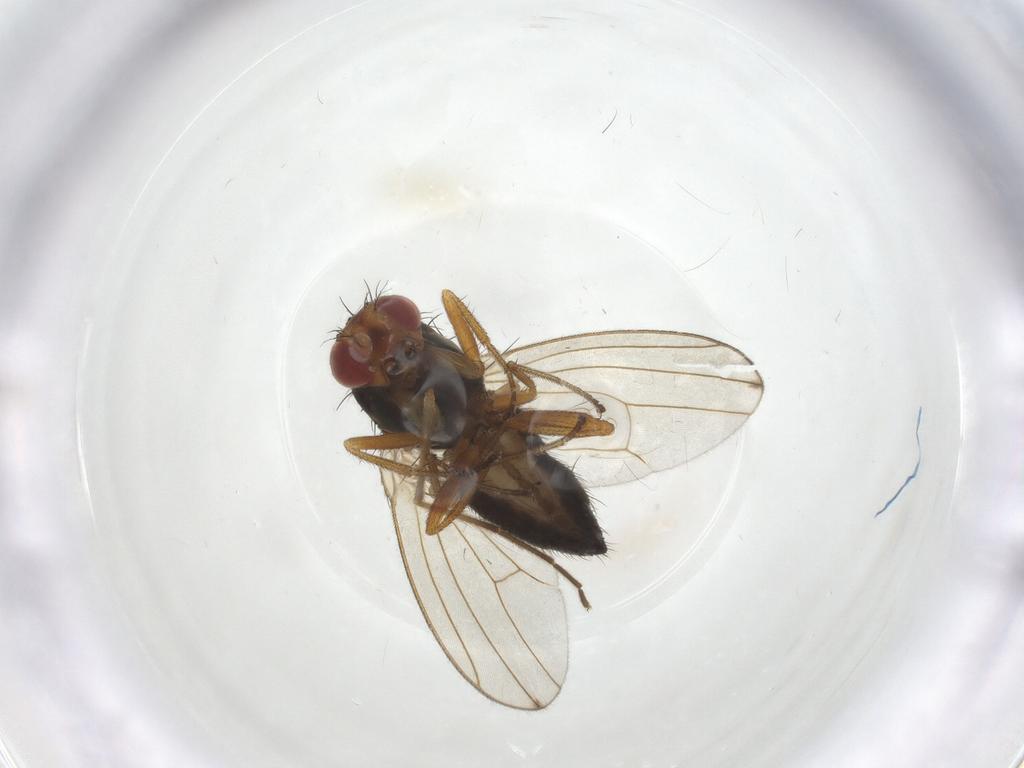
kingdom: Animalia
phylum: Arthropoda
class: Insecta
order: Diptera
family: Drosophilidae
